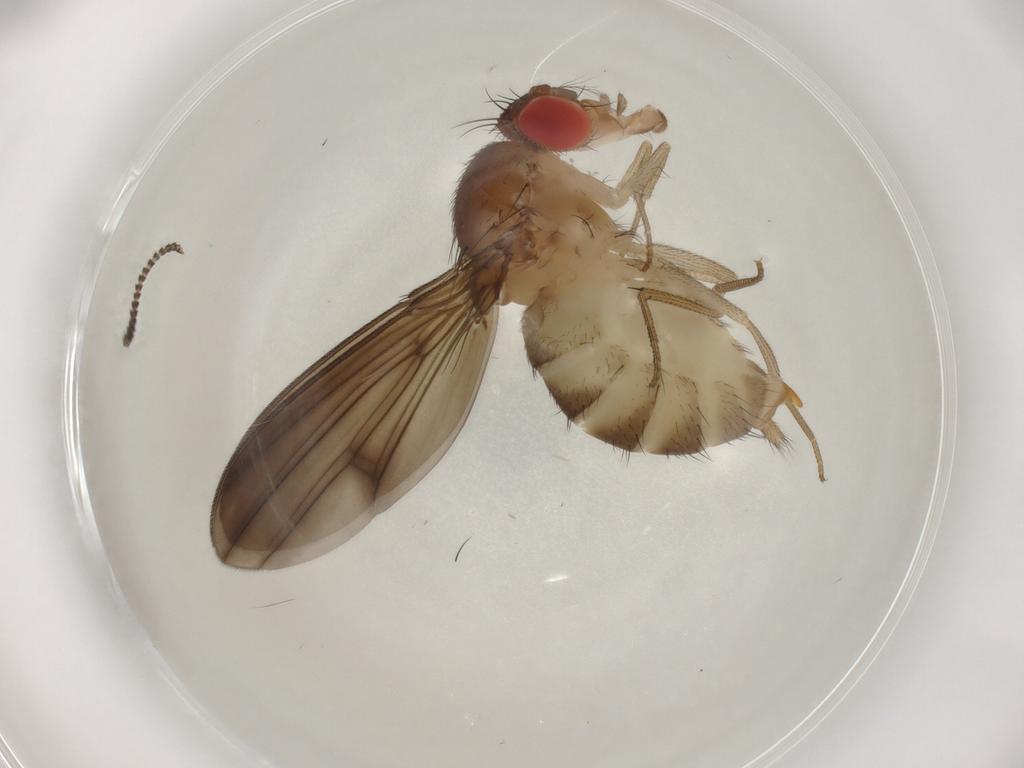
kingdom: Animalia
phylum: Arthropoda
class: Insecta
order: Diptera
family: Drosophilidae
